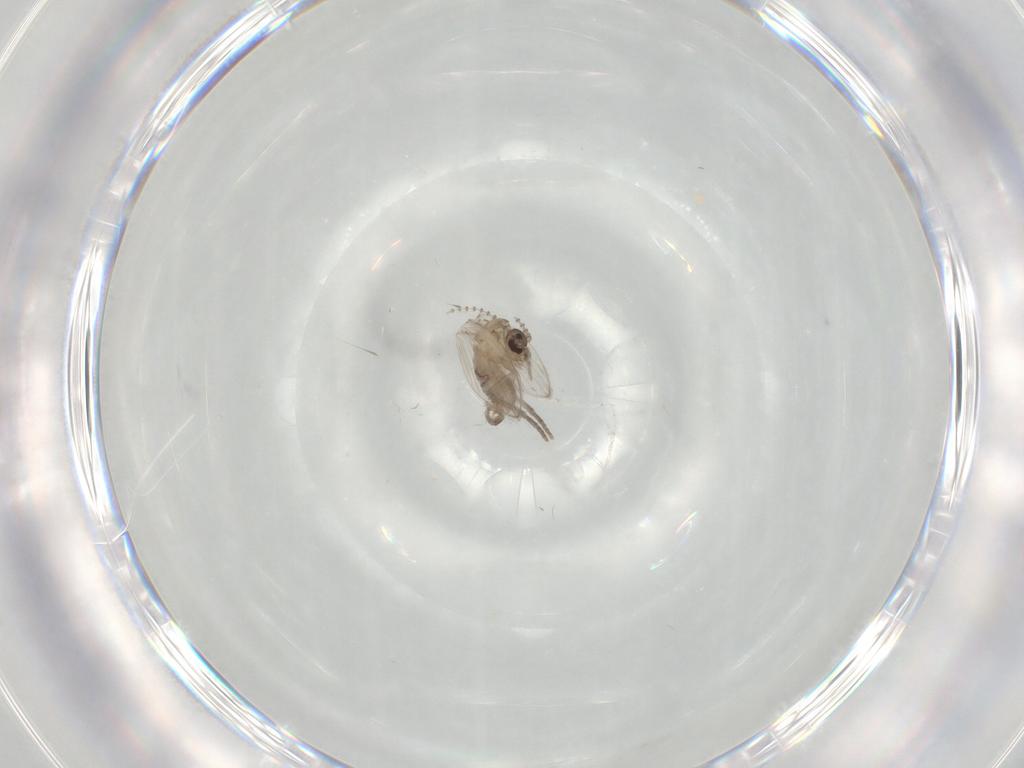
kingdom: Animalia
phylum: Arthropoda
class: Insecta
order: Diptera
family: Psychodidae
